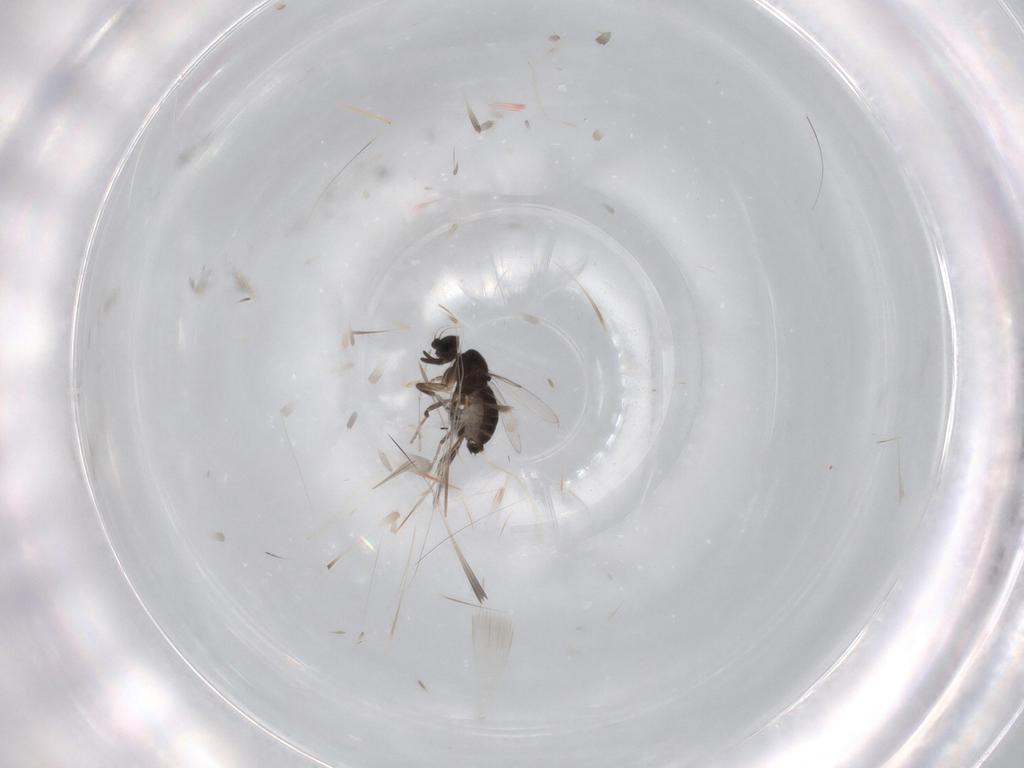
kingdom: Animalia
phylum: Arthropoda
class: Insecta
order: Diptera
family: Phoridae
